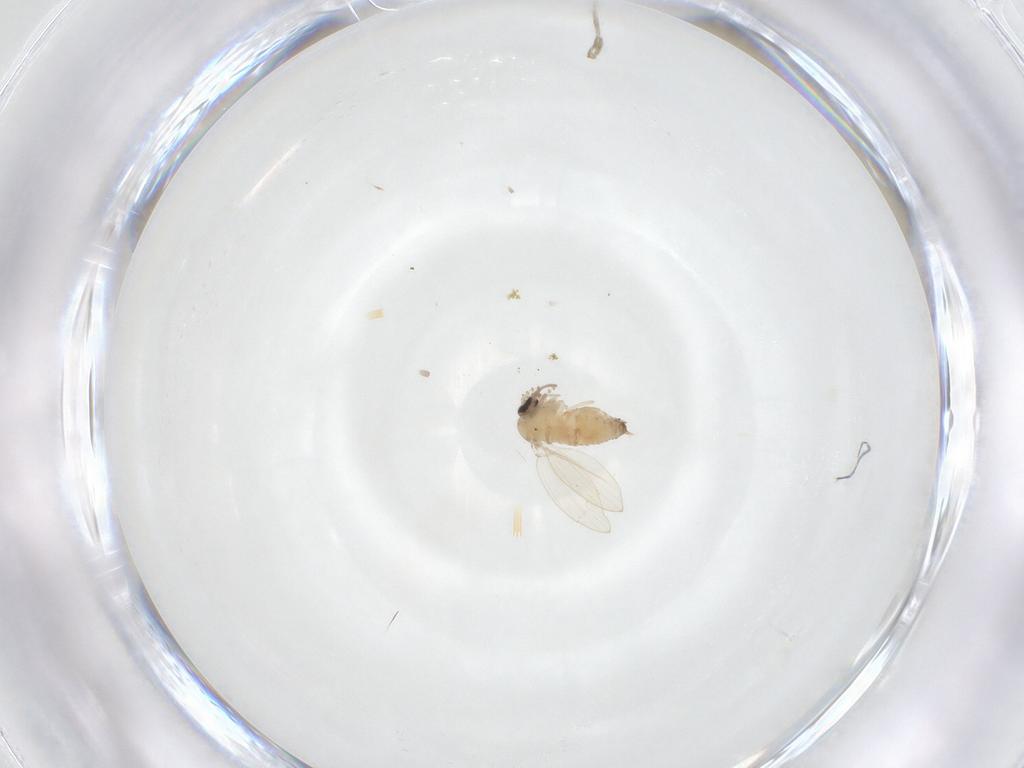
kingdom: Animalia
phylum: Arthropoda
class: Insecta
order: Diptera
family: Psychodidae
